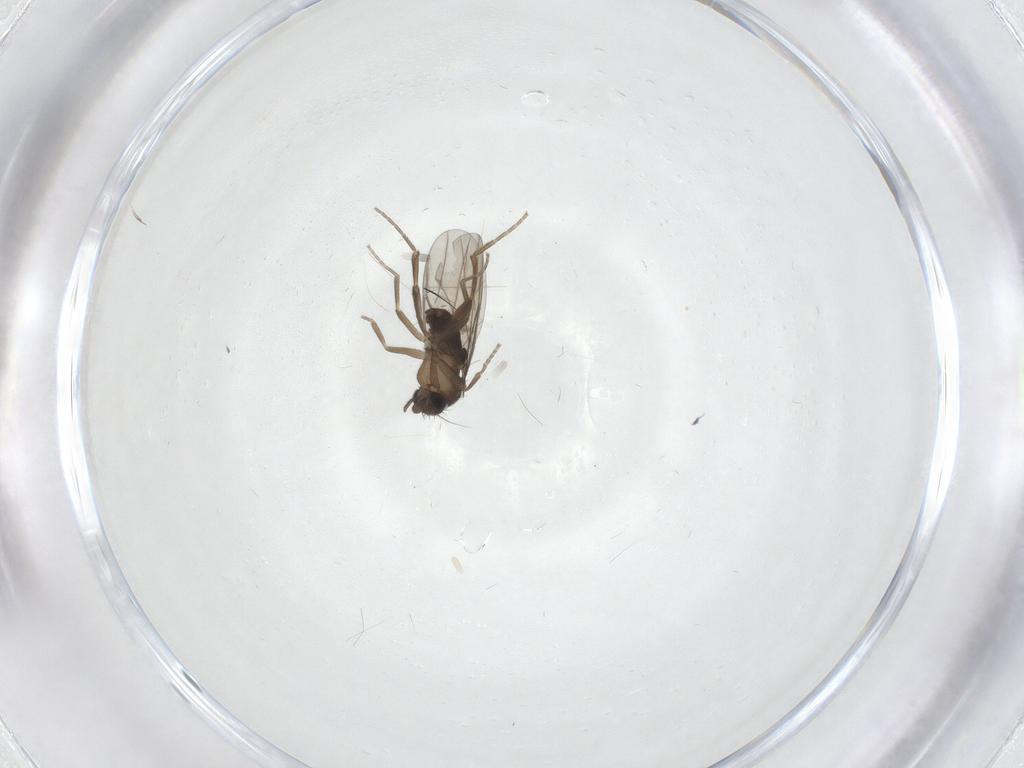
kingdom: Animalia
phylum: Arthropoda
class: Insecta
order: Diptera
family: Phoridae
